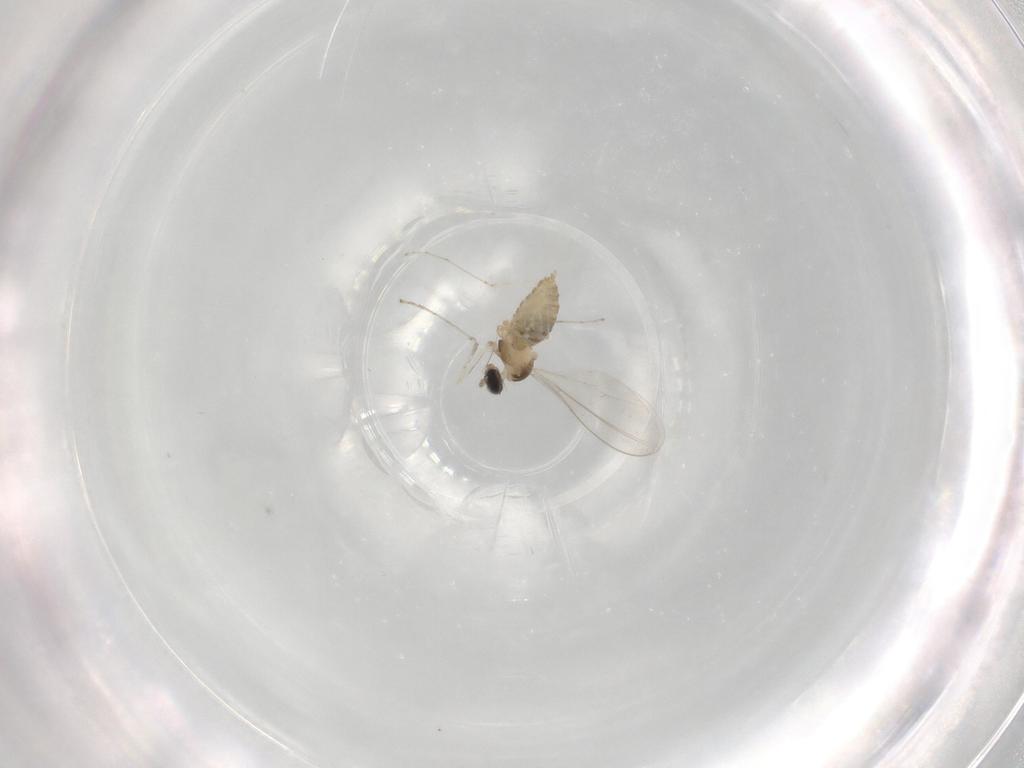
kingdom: Animalia
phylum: Arthropoda
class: Insecta
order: Diptera
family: Cecidomyiidae
